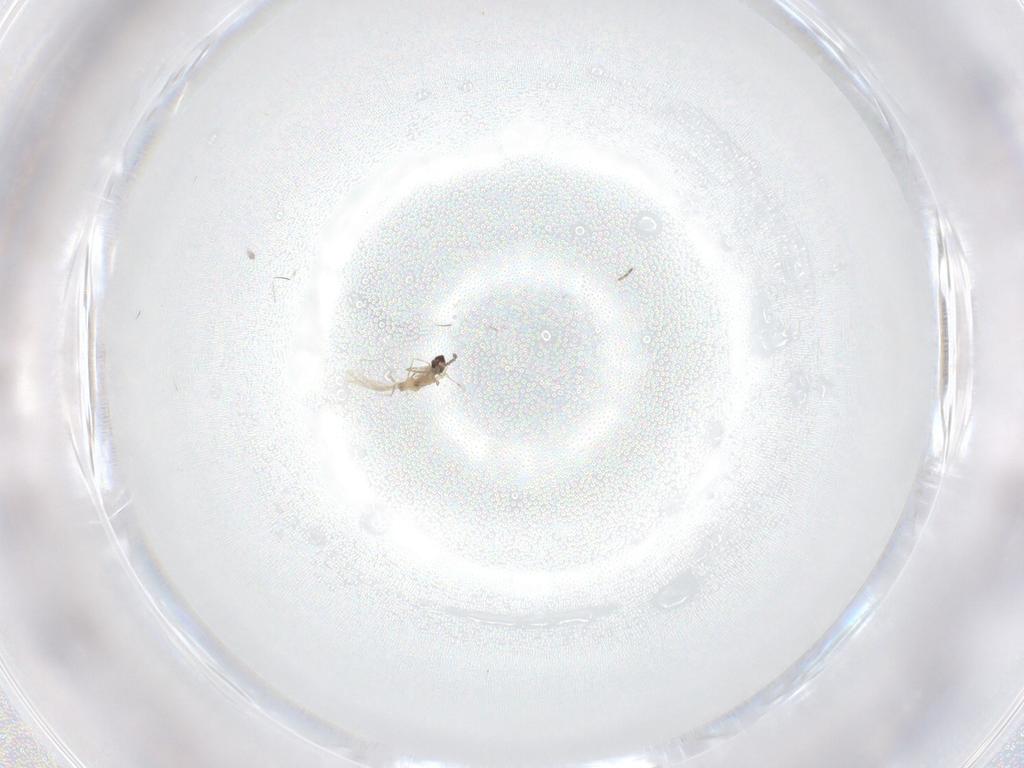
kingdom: Animalia
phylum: Arthropoda
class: Insecta
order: Diptera
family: Cecidomyiidae
